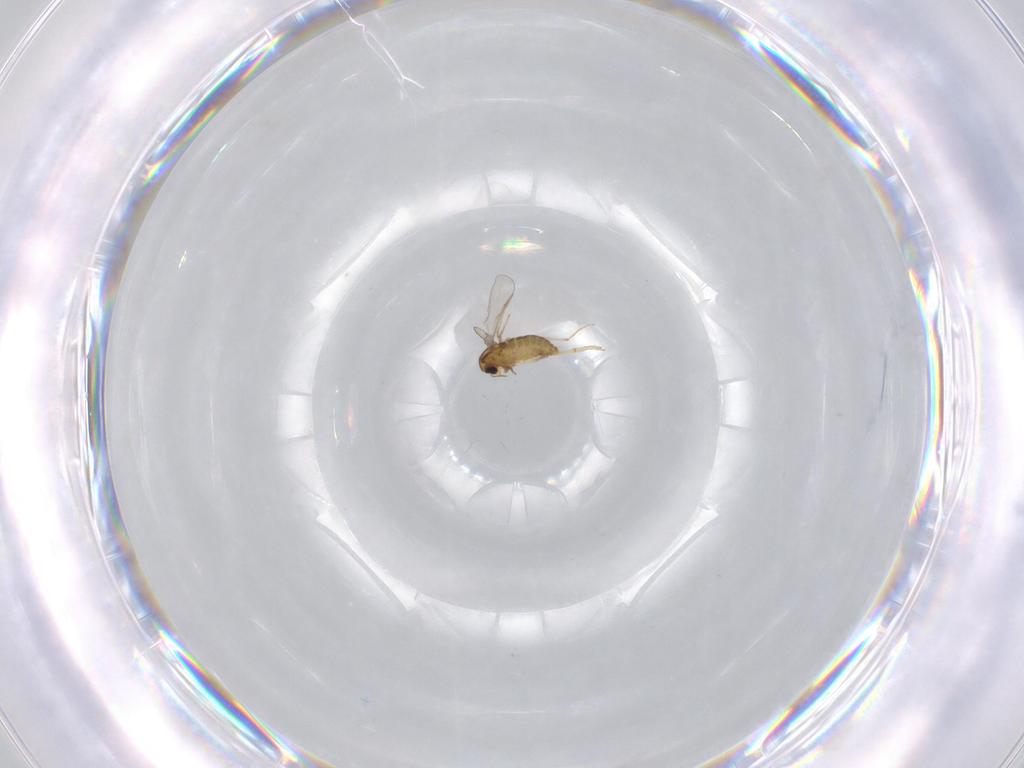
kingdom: Animalia
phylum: Arthropoda
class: Insecta
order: Diptera
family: Chironomidae
